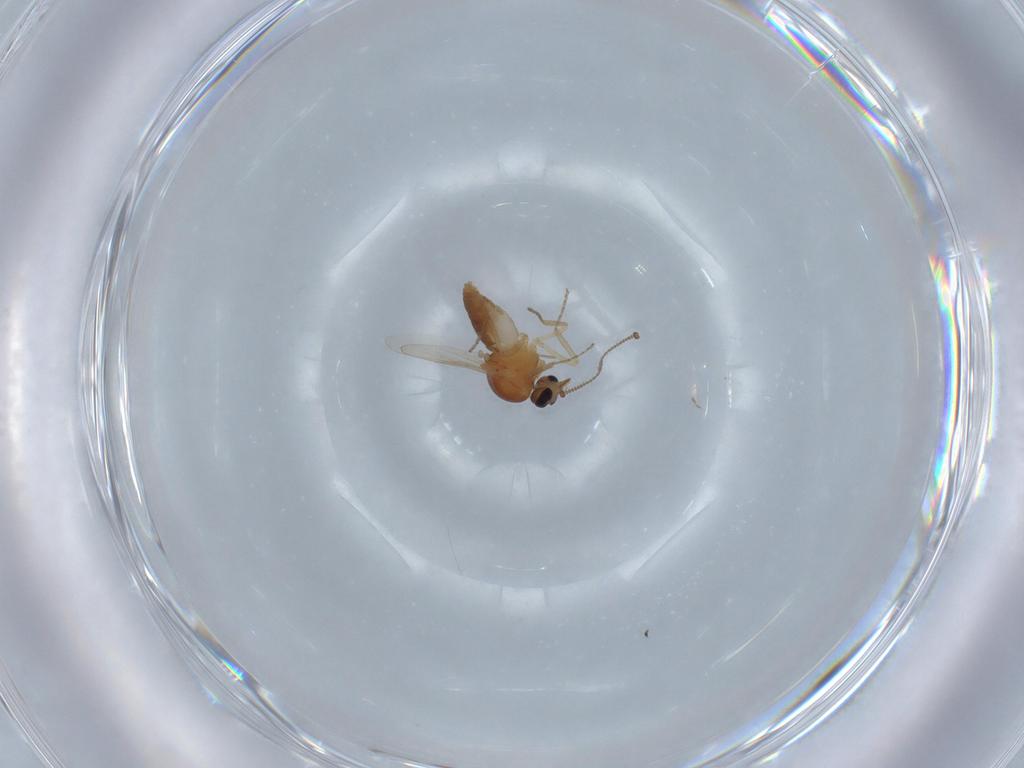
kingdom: Animalia
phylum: Arthropoda
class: Insecta
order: Diptera
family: Ceratopogonidae
